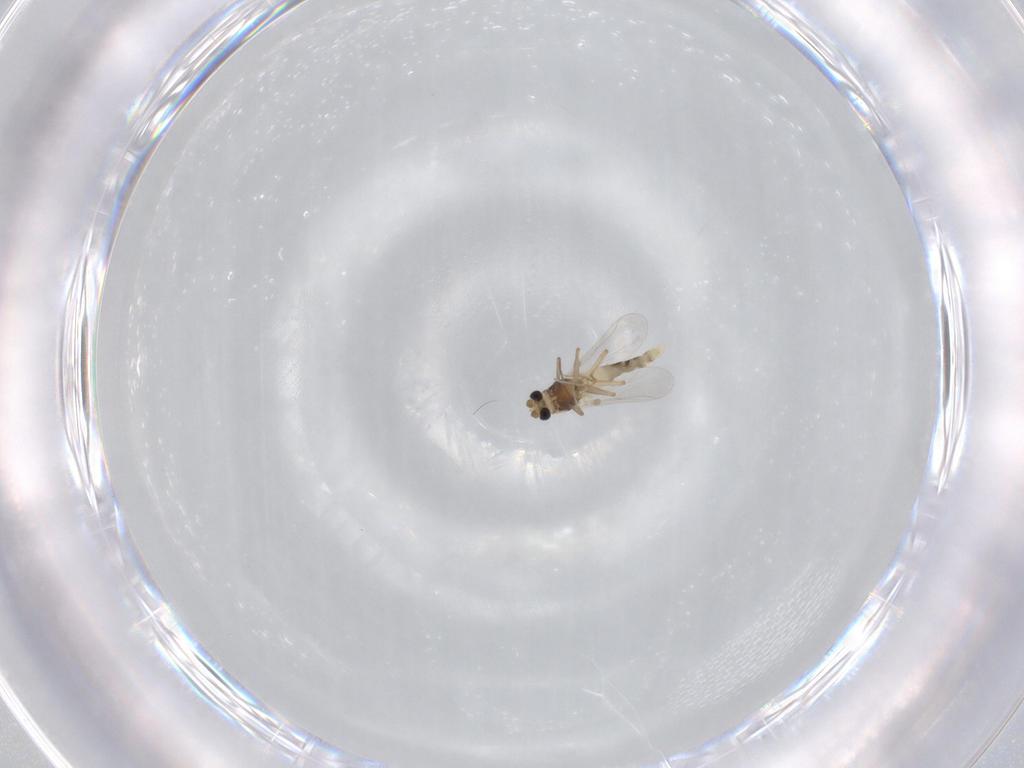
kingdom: Animalia
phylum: Arthropoda
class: Insecta
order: Diptera
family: Chironomidae
